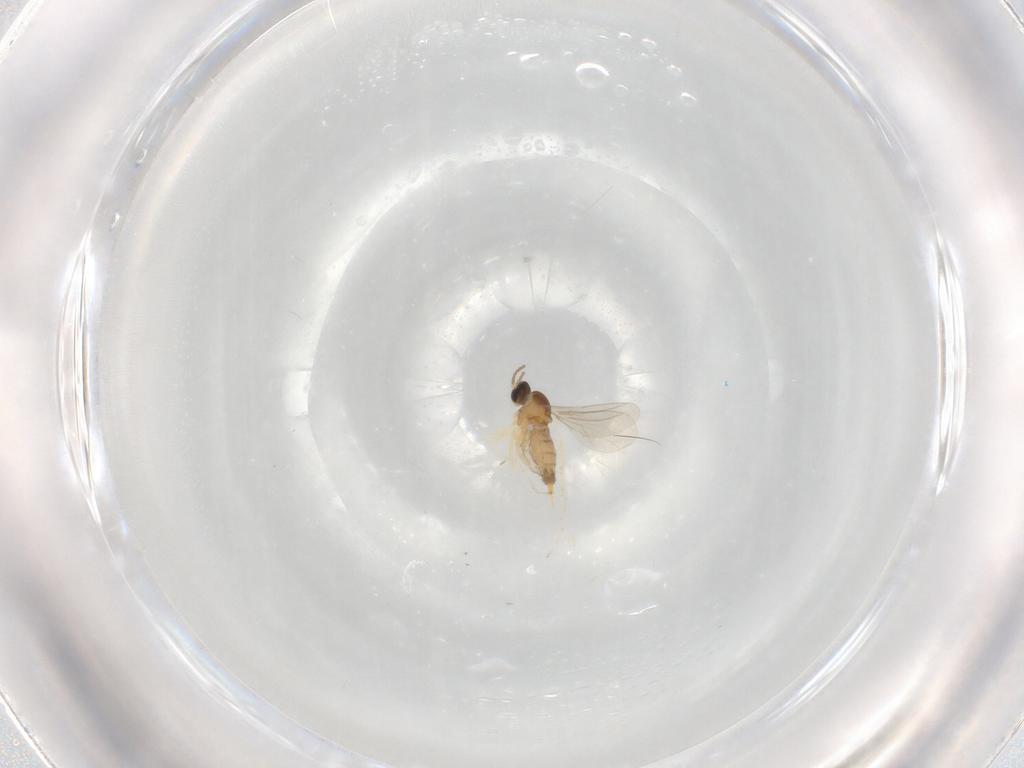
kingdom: Animalia
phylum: Arthropoda
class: Insecta
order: Diptera
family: Cecidomyiidae
